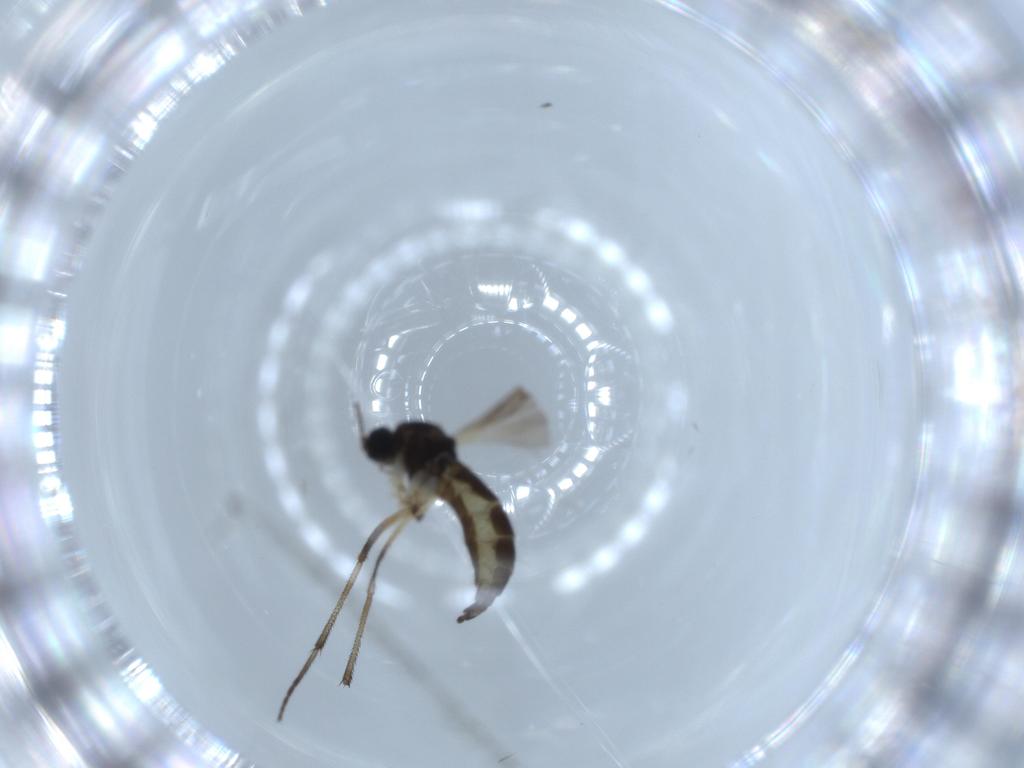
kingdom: Animalia
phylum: Arthropoda
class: Insecta
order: Diptera
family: Sciaridae
